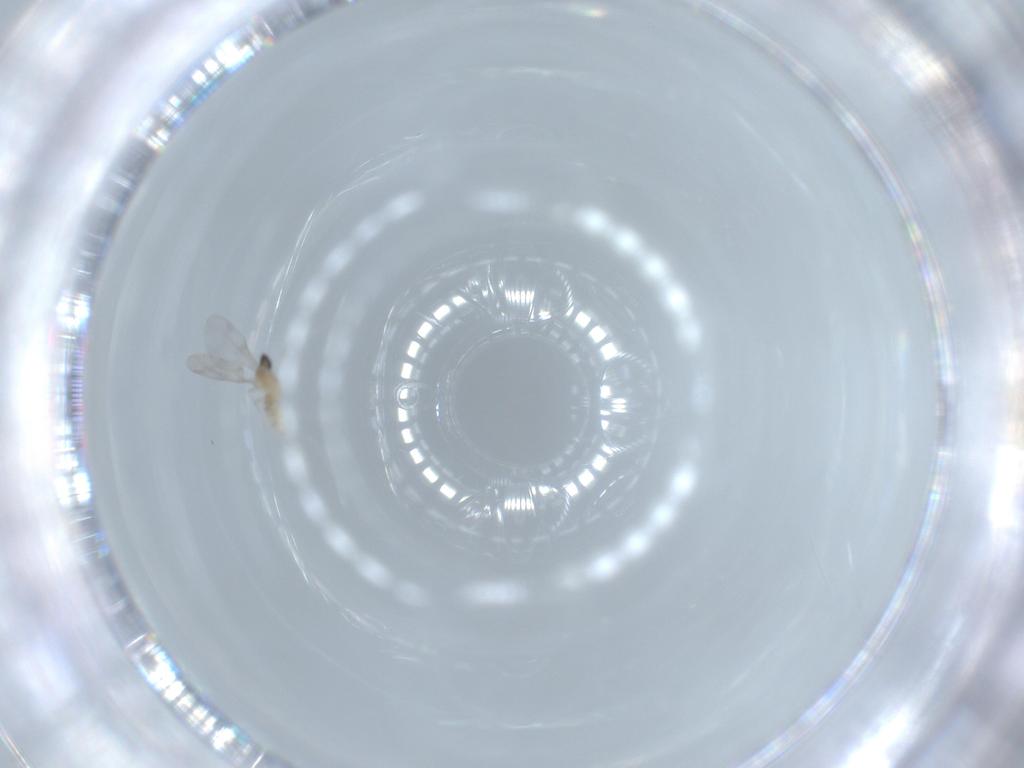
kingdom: Animalia
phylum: Arthropoda
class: Insecta
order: Diptera
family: Cecidomyiidae
